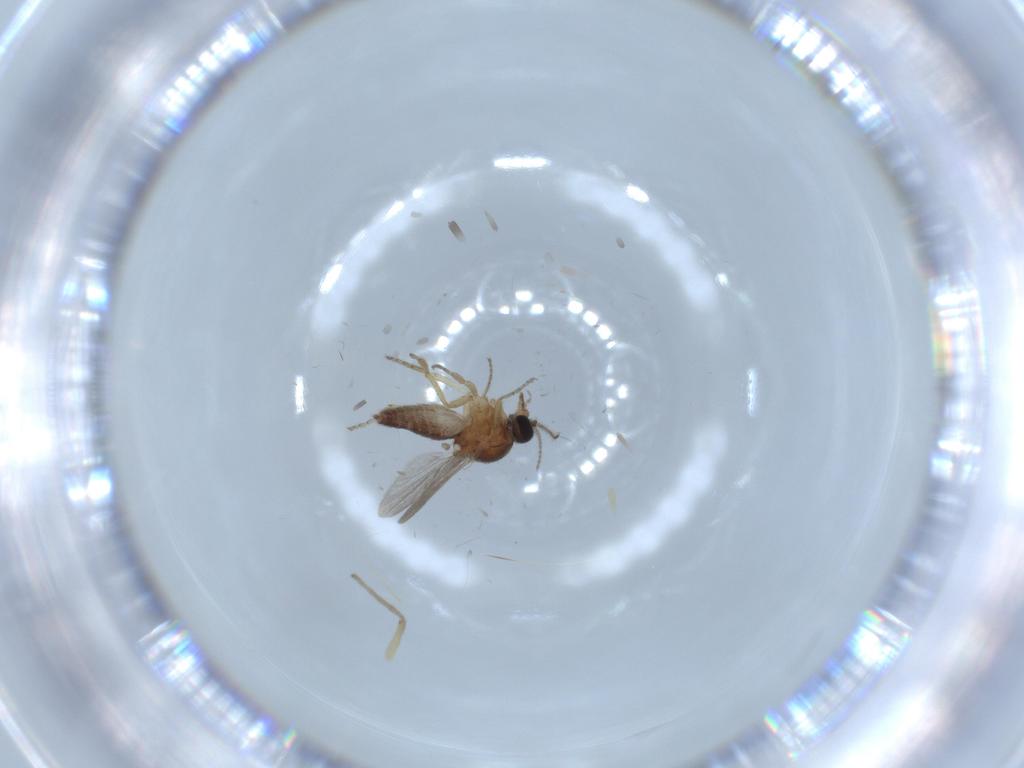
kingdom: Animalia
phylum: Arthropoda
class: Insecta
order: Diptera
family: Ceratopogonidae
